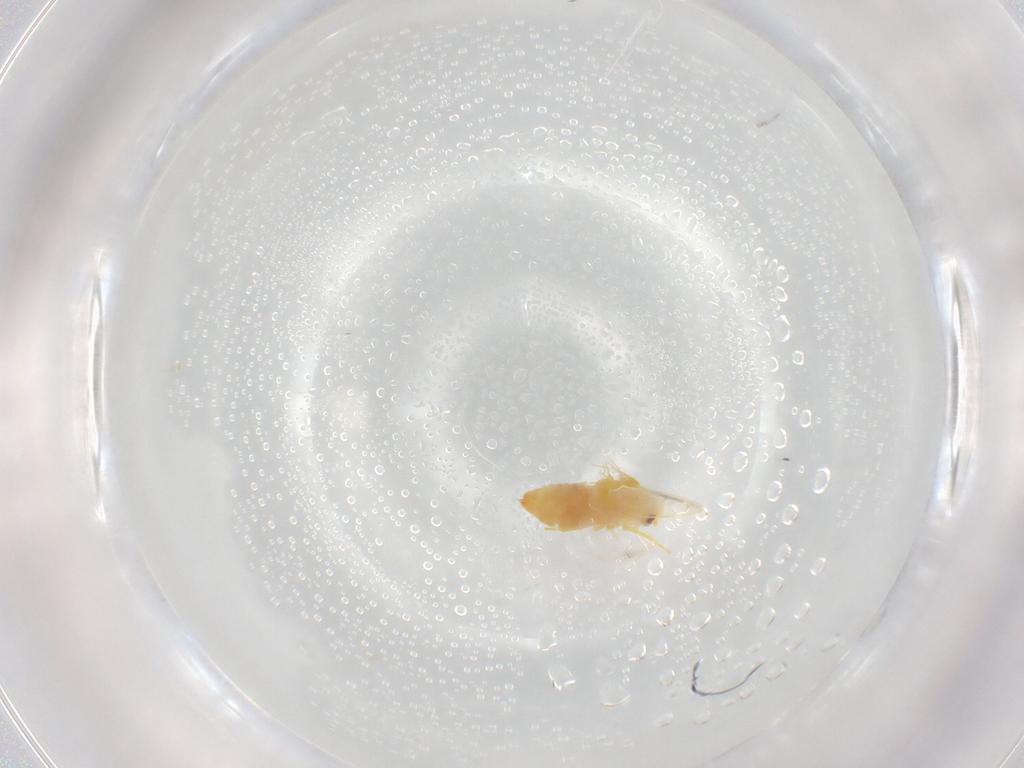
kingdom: Animalia
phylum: Arthropoda
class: Insecta
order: Hemiptera
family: Aleyrodidae
